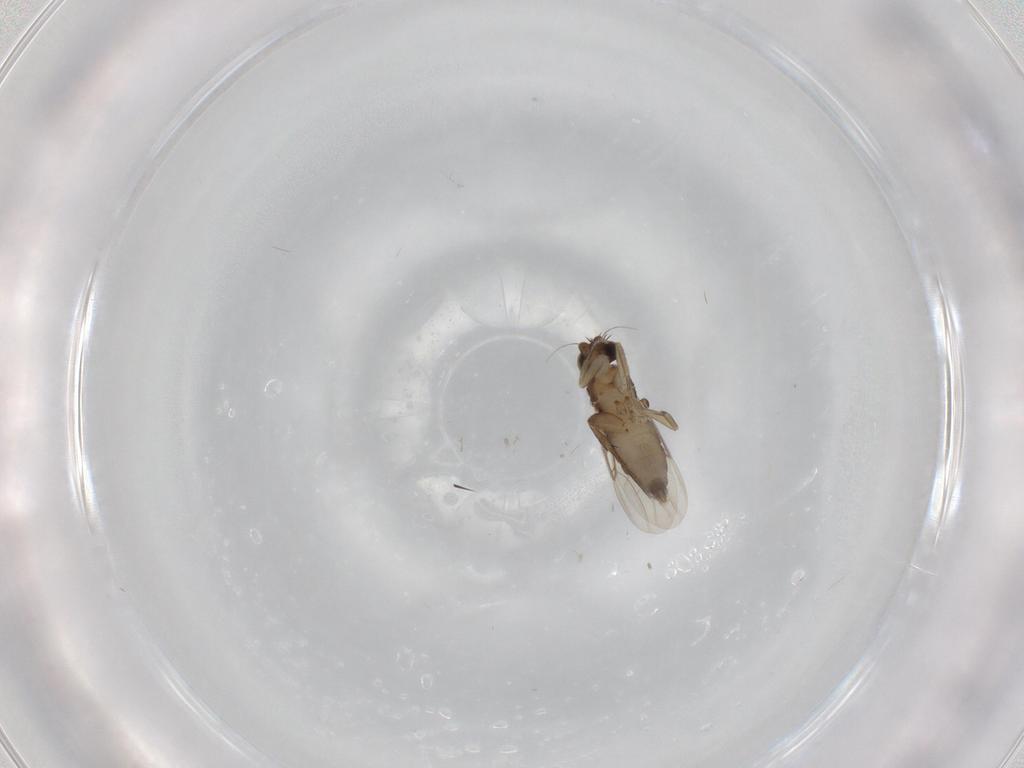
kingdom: Animalia
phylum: Arthropoda
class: Insecta
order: Diptera
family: Phoridae
